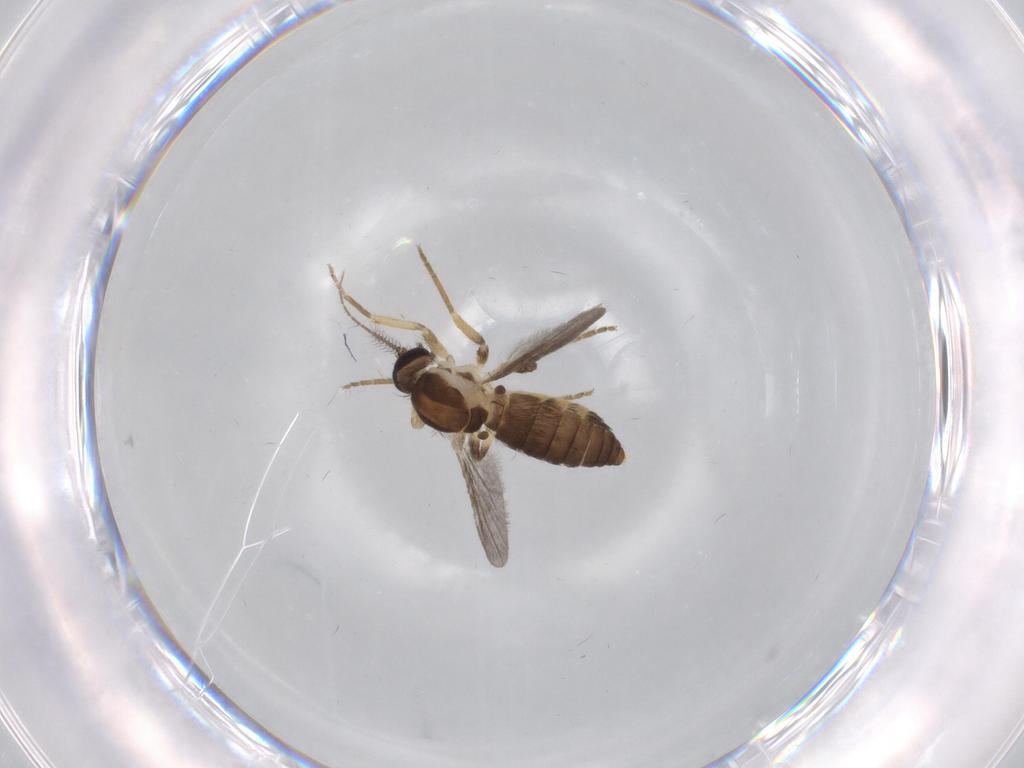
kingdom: Animalia
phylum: Arthropoda
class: Insecta
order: Diptera
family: Ceratopogonidae
